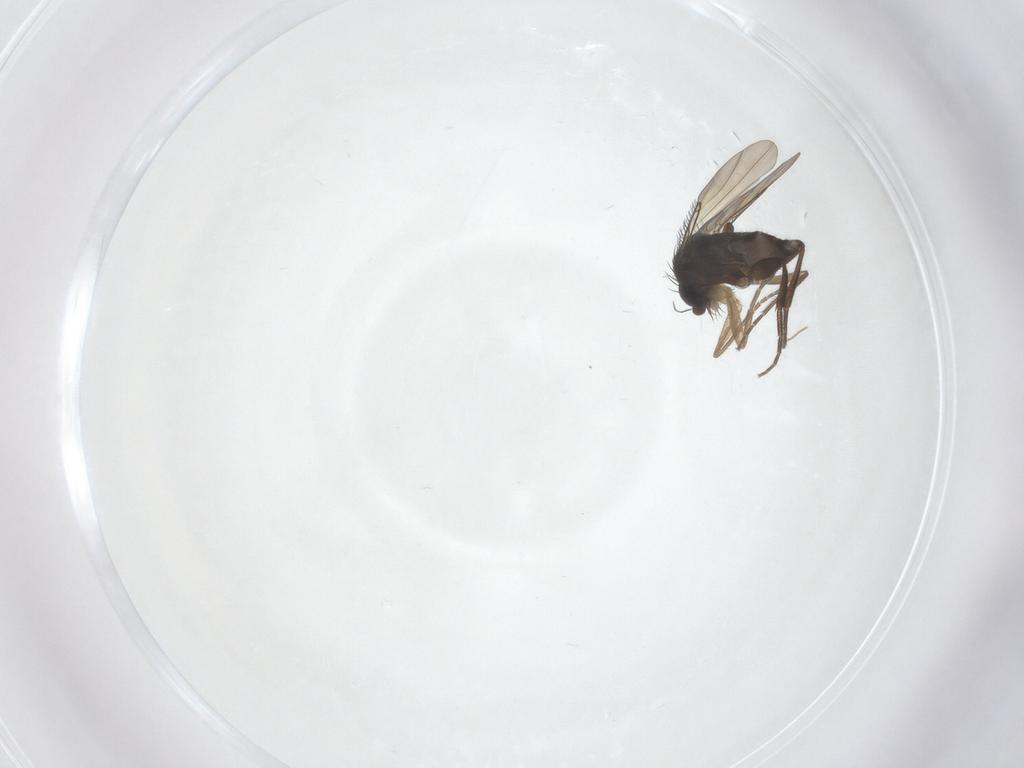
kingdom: Animalia
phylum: Arthropoda
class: Insecta
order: Diptera
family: Phoridae
